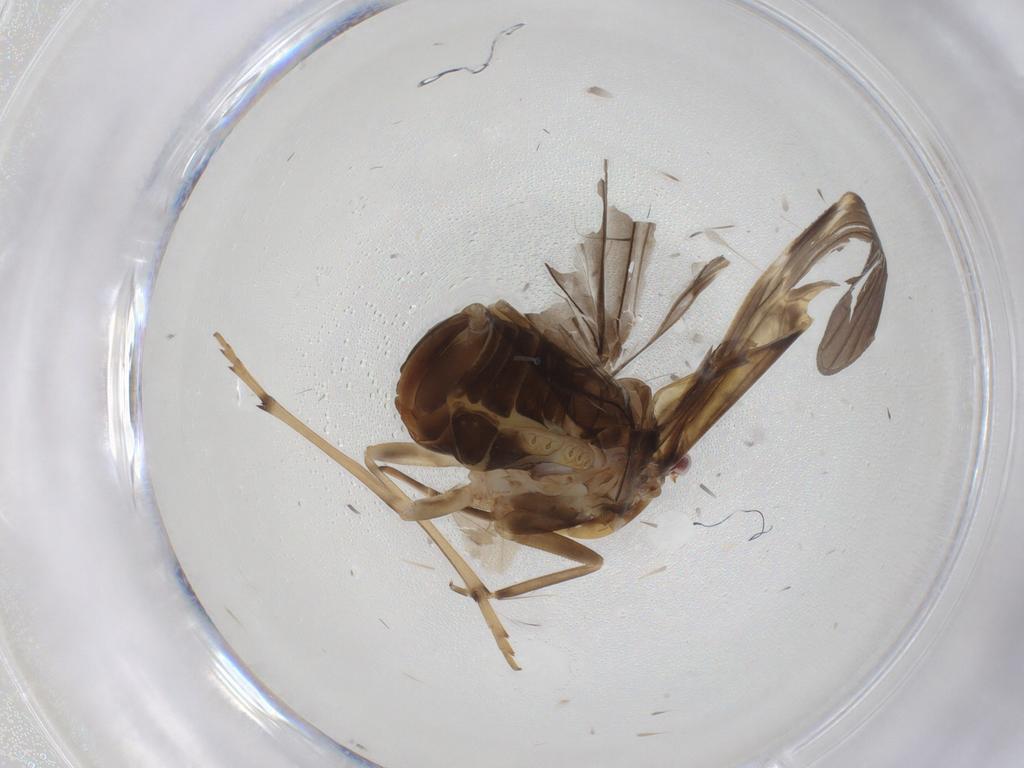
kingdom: Animalia
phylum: Arthropoda
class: Insecta
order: Hemiptera
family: Cixiidae
